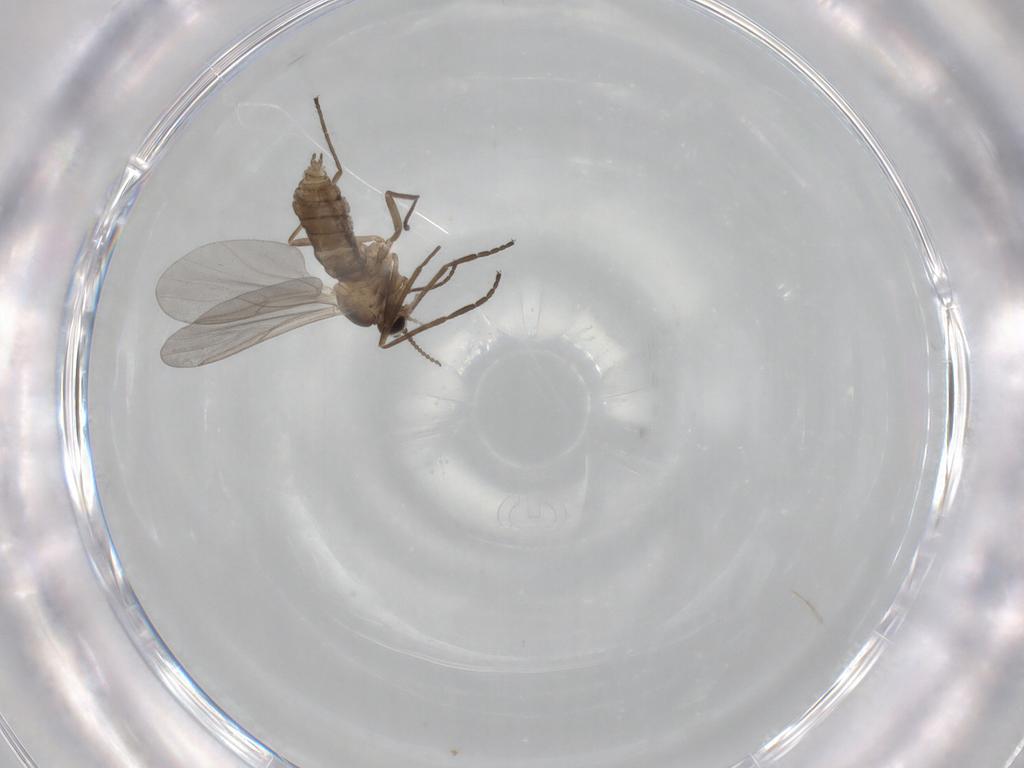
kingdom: Animalia
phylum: Arthropoda
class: Insecta
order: Diptera
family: Cecidomyiidae
